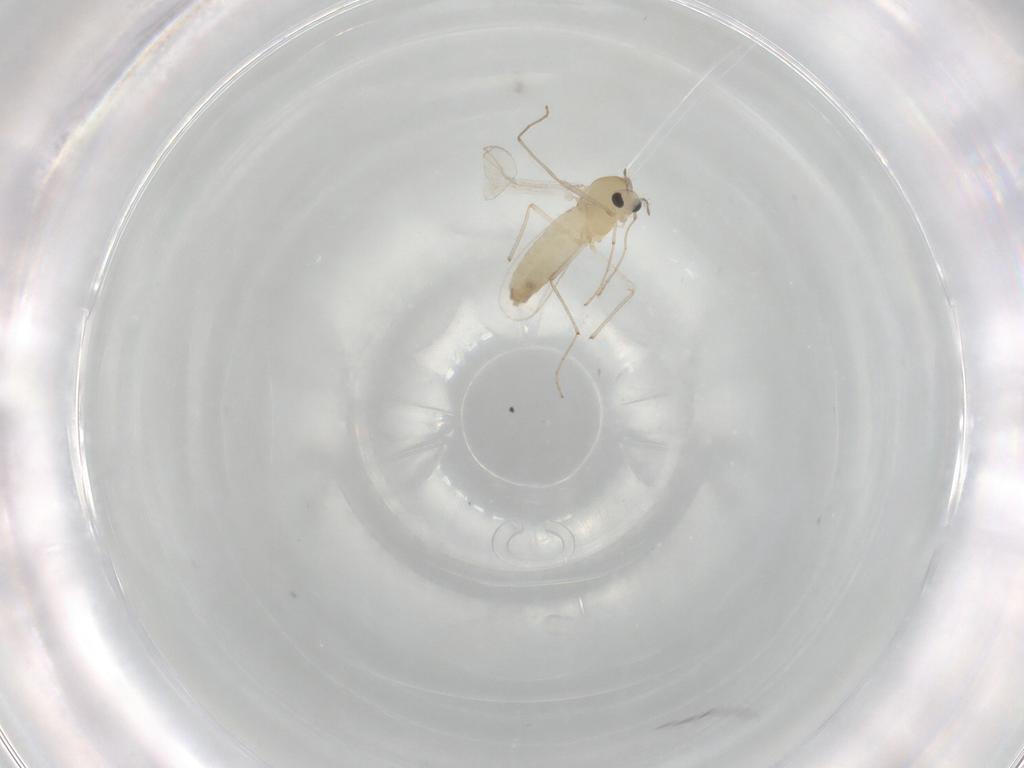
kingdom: Animalia
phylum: Arthropoda
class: Insecta
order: Diptera
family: Chironomidae
